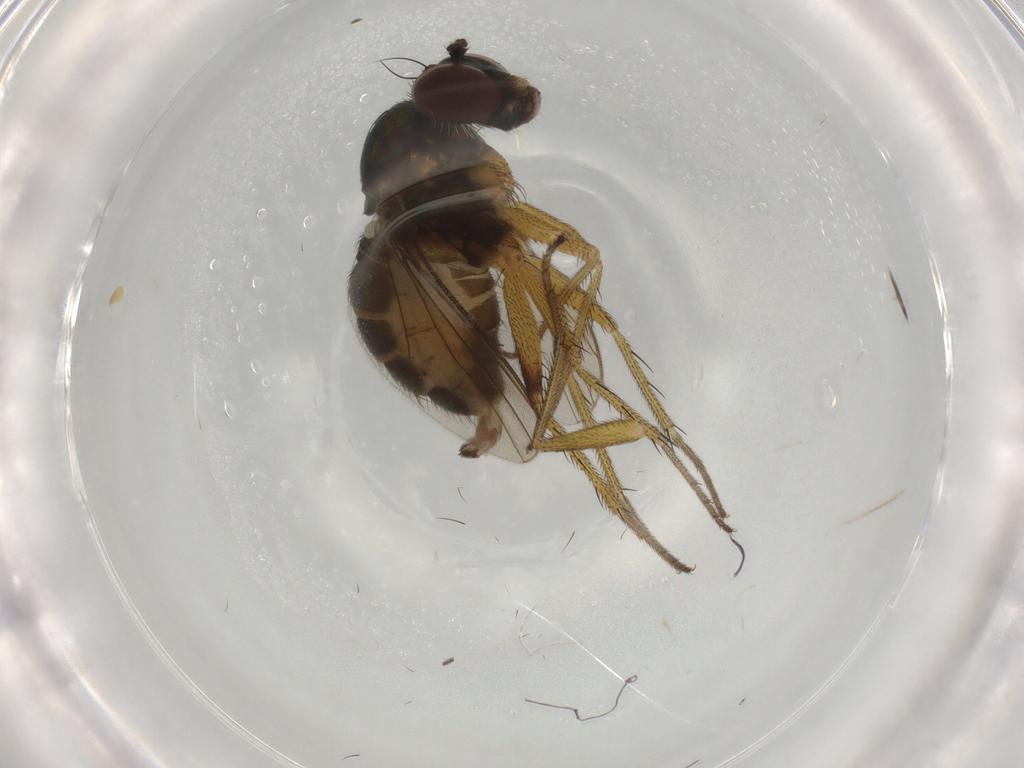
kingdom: Animalia
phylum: Arthropoda
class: Insecta
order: Diptera
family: Dolichopodidae
